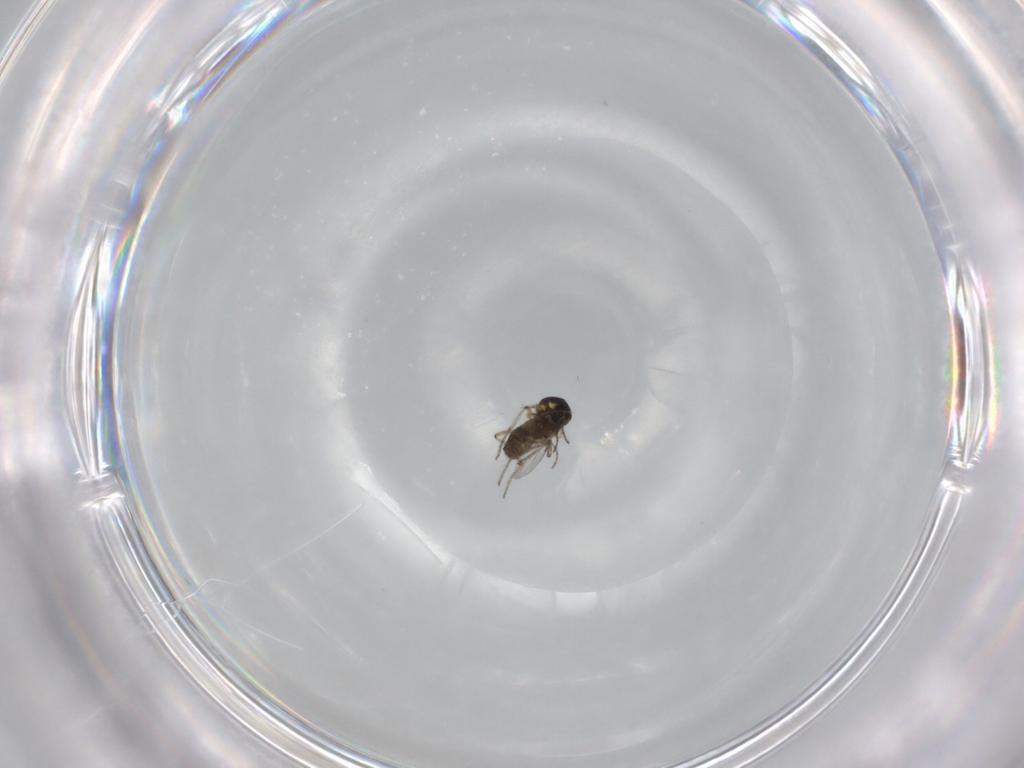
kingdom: Animalia
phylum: Arthropoda
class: Insecta
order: Diptera
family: Ceratopogonidae
